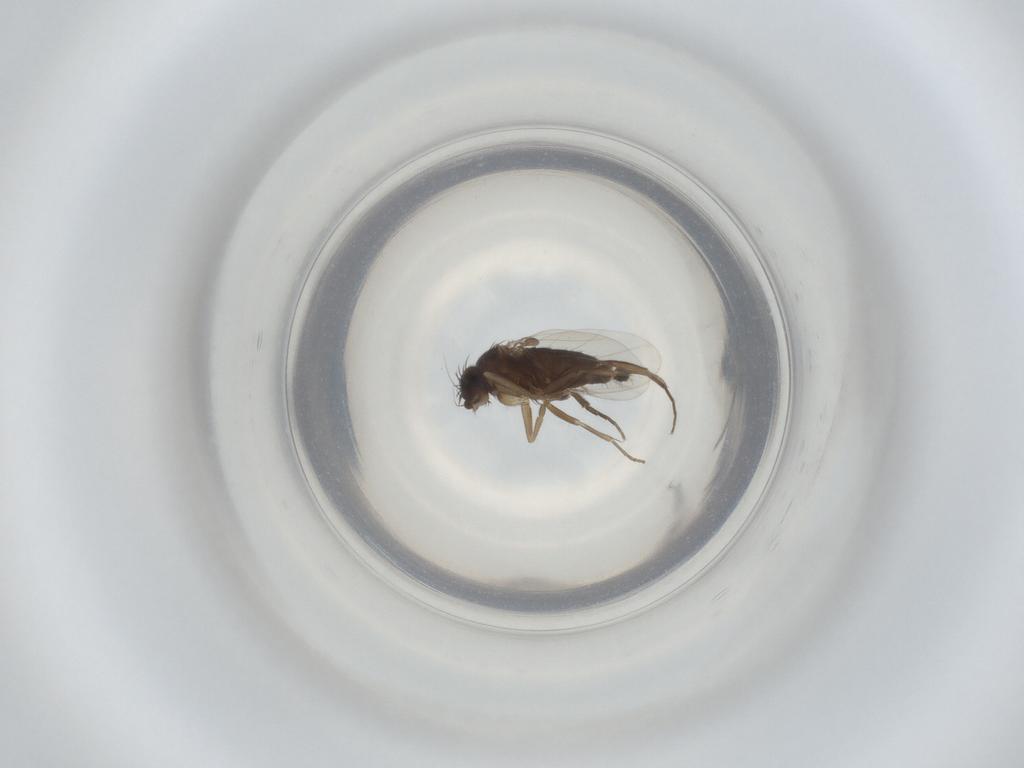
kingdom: Animalia
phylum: Arthropoda
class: Insecta
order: Diptera
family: Phoridae
